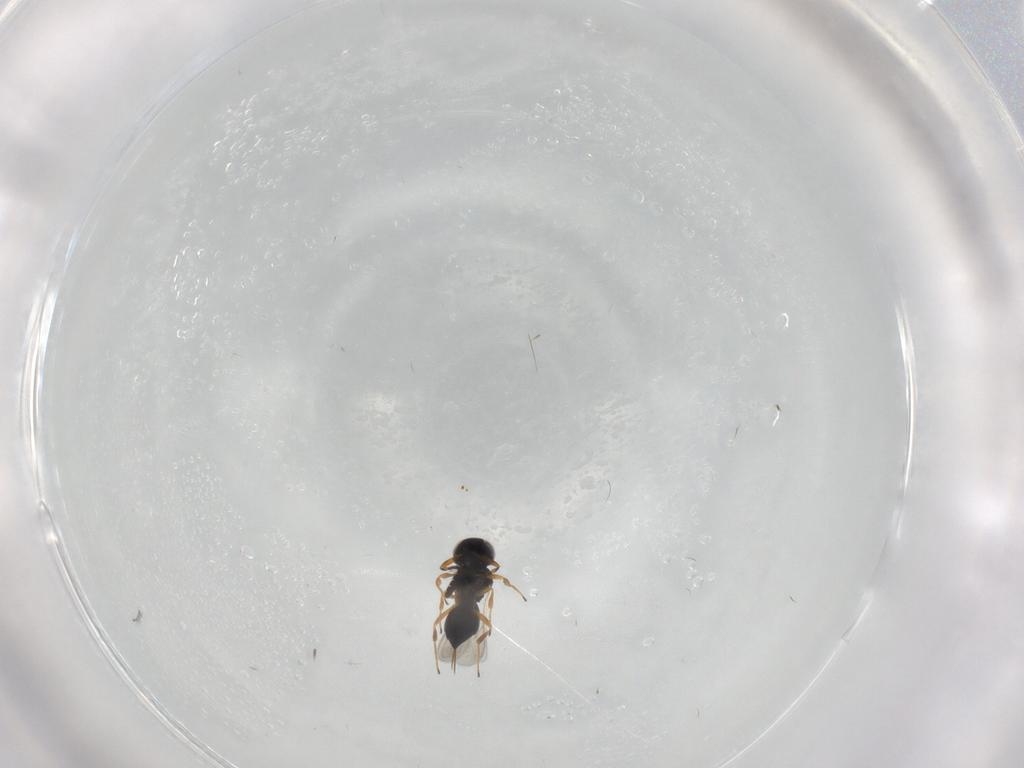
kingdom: Animalia
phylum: Arthropoda
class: Insecta
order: Hymenoptera
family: Scelionidae
